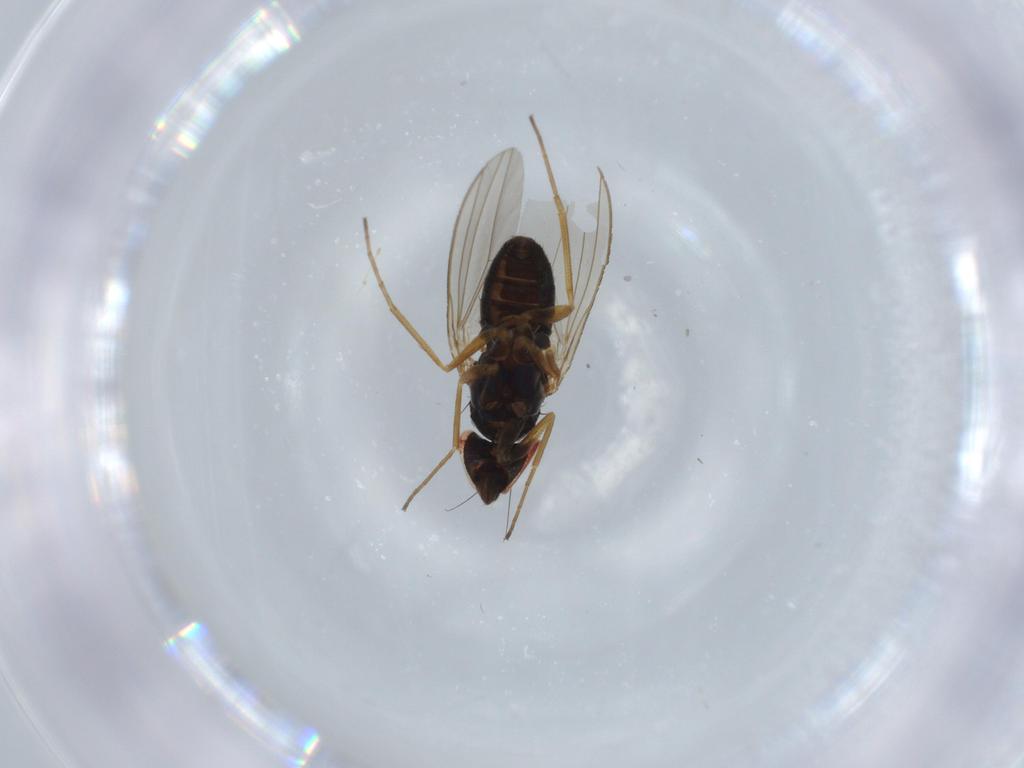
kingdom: Animalia
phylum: Arthropoda
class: Insecta
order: Diptera
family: Dolichopodidae
